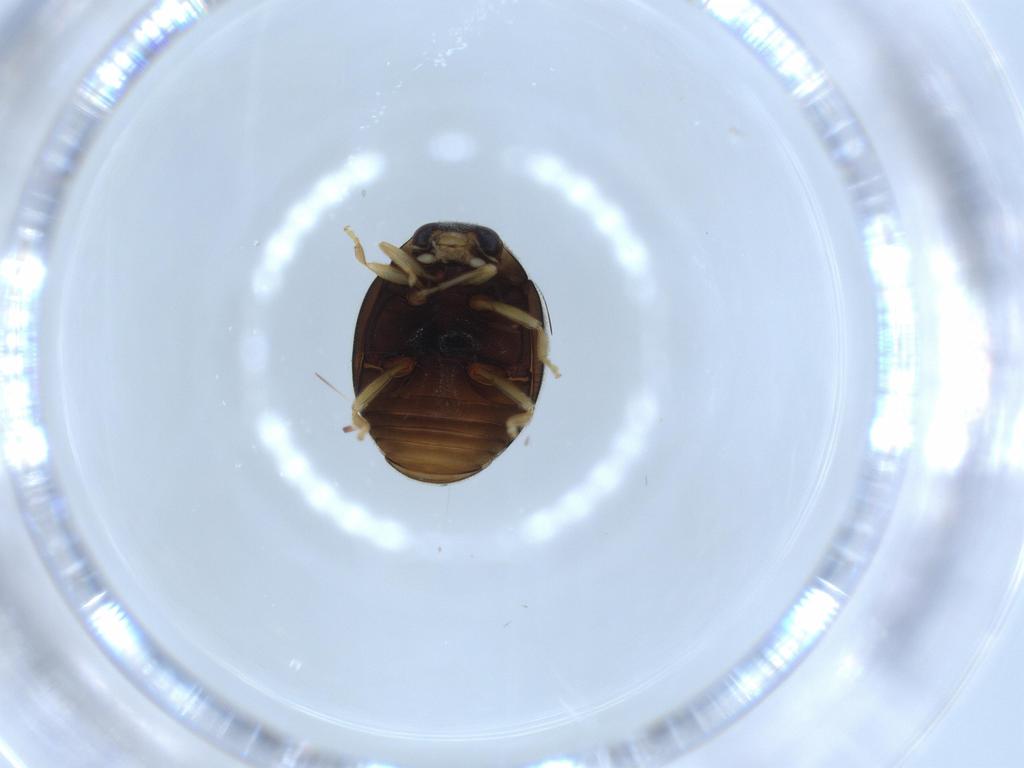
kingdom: Animalia
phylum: Arthropoda
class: Insecta
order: Coleoptera
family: Coccinellidae
